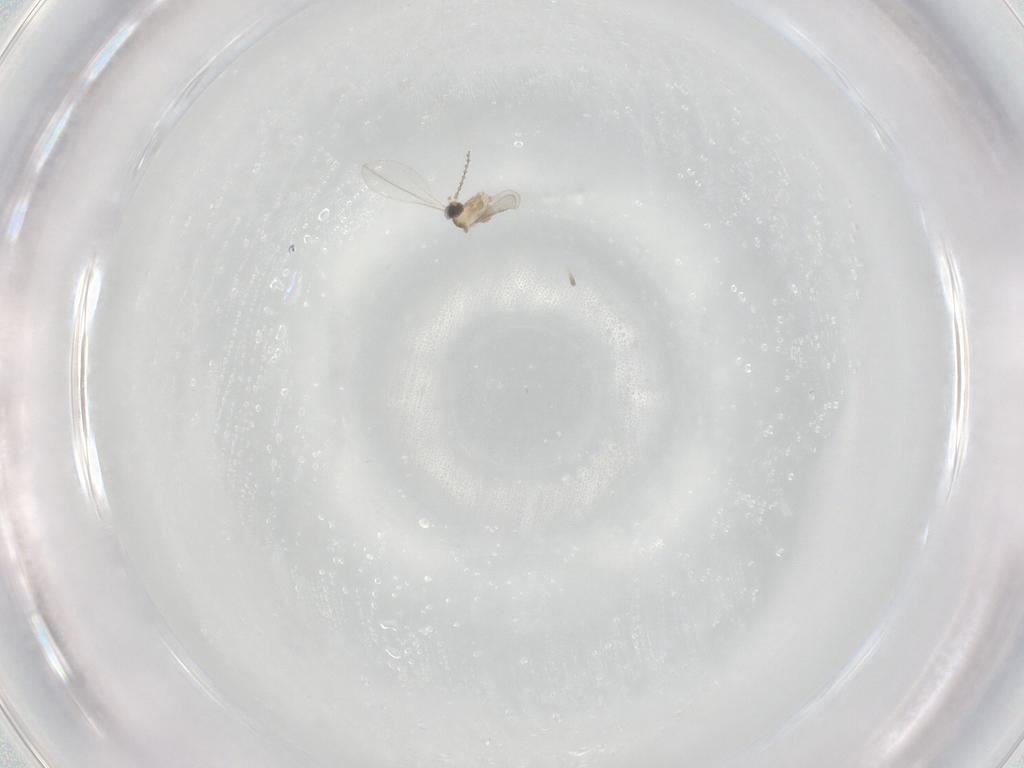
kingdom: Animalia
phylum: Arthropoda
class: Insecta
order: Diptera
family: Cecidomyiidae
